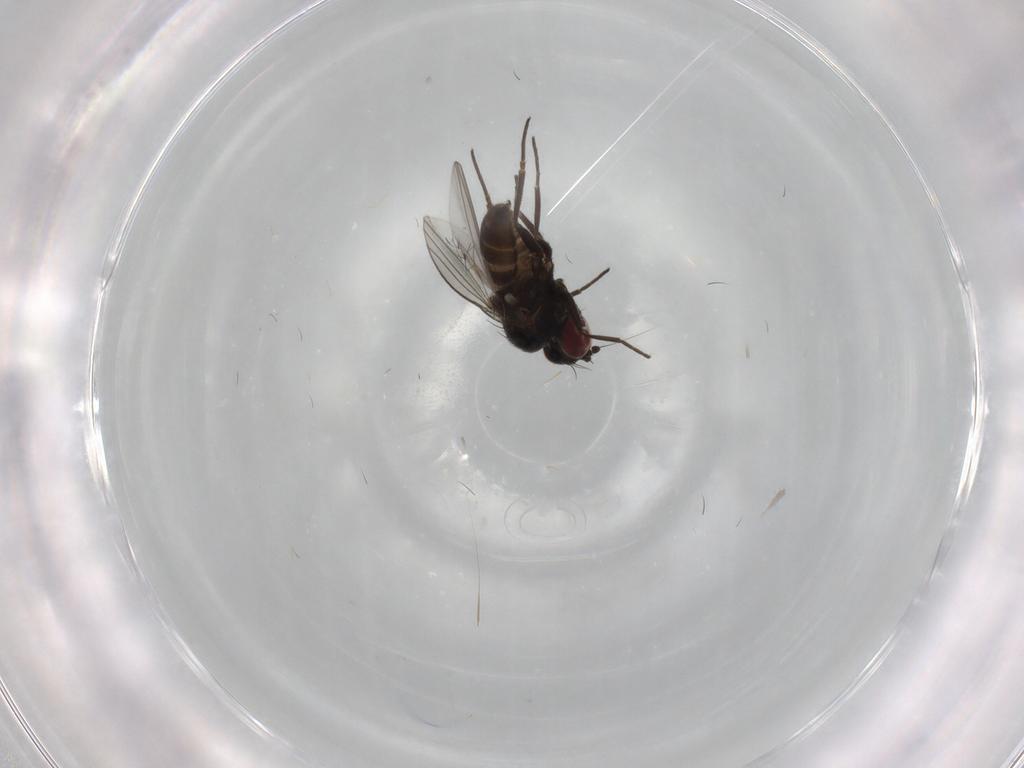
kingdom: Animalia
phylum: Arthropoda
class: Insecta
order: Diptera
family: Dolichopodidae
